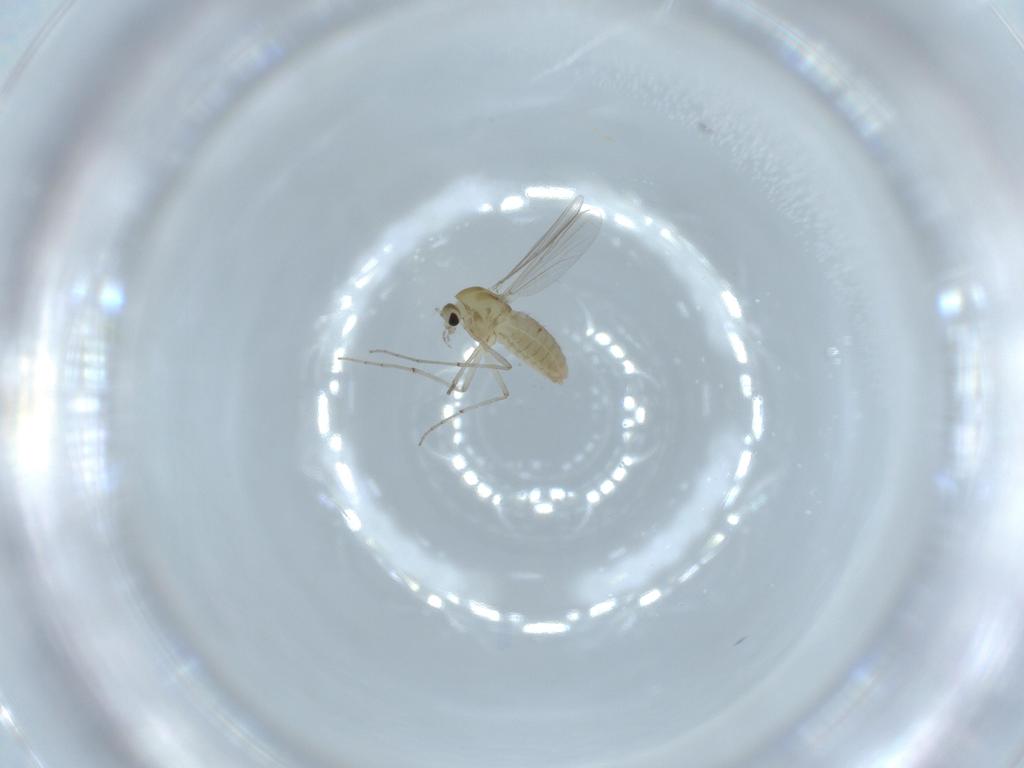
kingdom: Animalia
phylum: Arthropoda
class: Insecta
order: Diptera
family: Chironomidae
